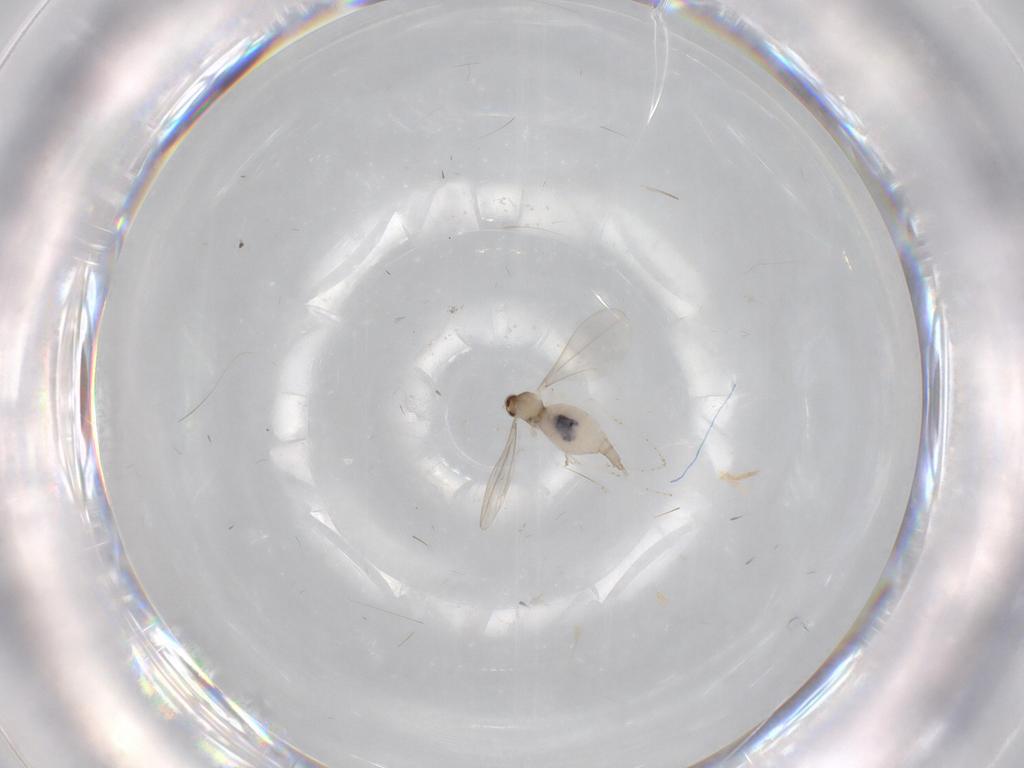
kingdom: Animalia
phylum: Arthropoda
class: Insecta
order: Diptera
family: Cecidomyiidae
